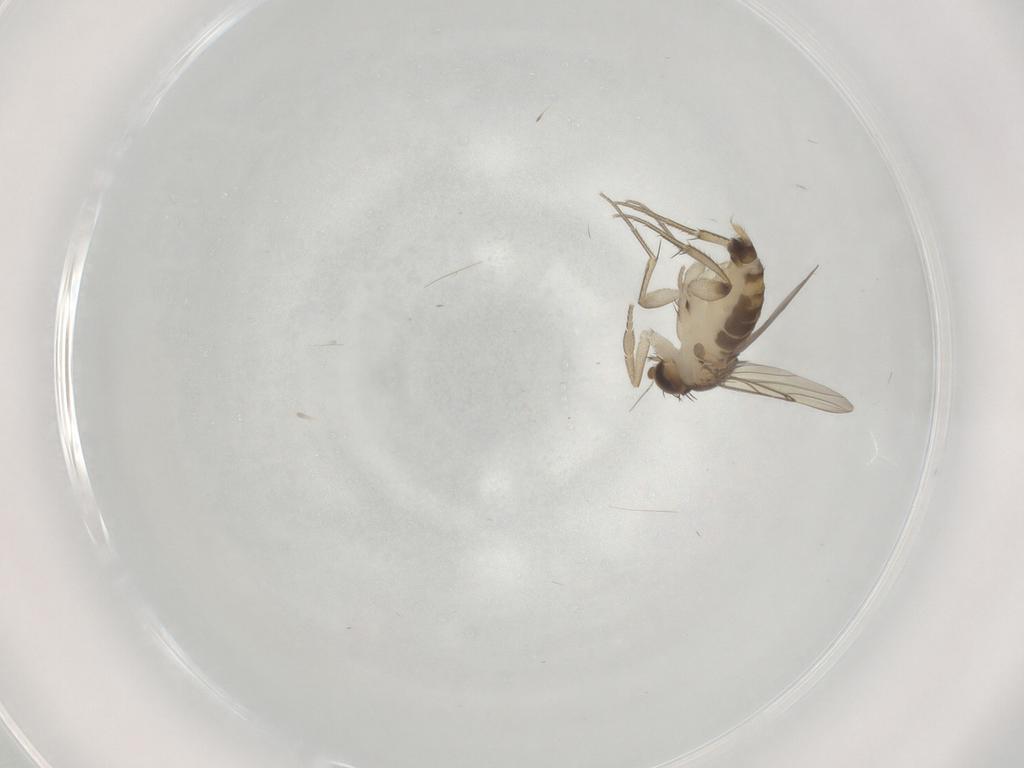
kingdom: Animalia
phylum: Arthropoda
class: Insecta
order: Diptera
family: Phoridae
